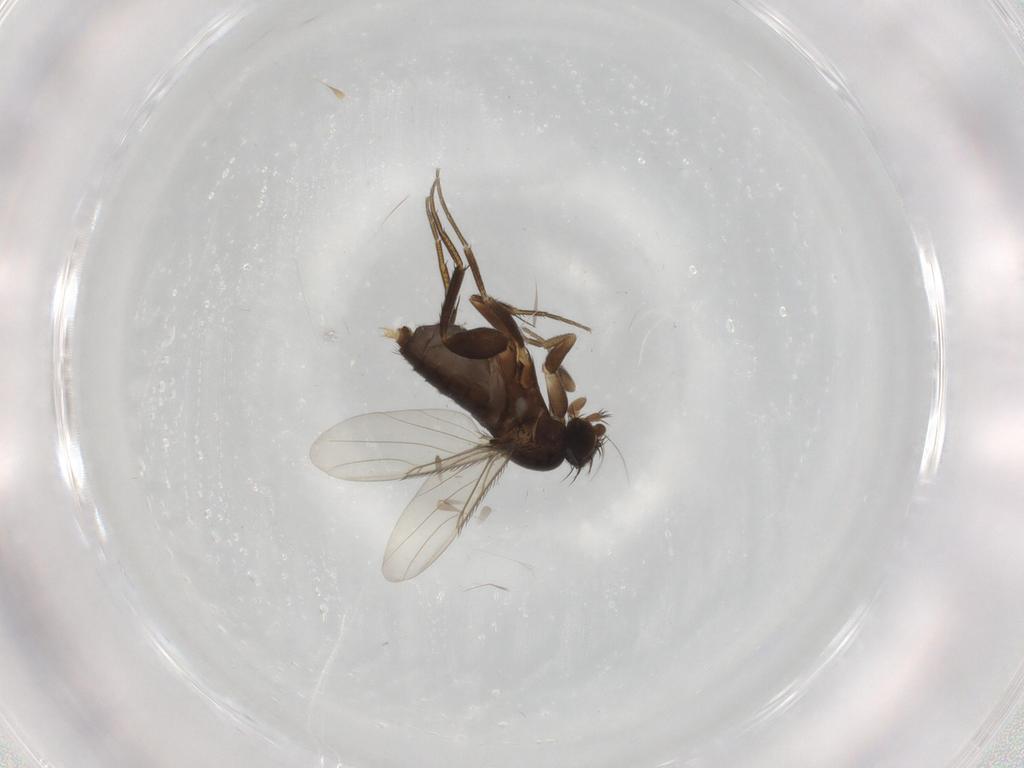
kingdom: Animalia
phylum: Arthropoda
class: Insecta
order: Diptera
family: Phoridae
